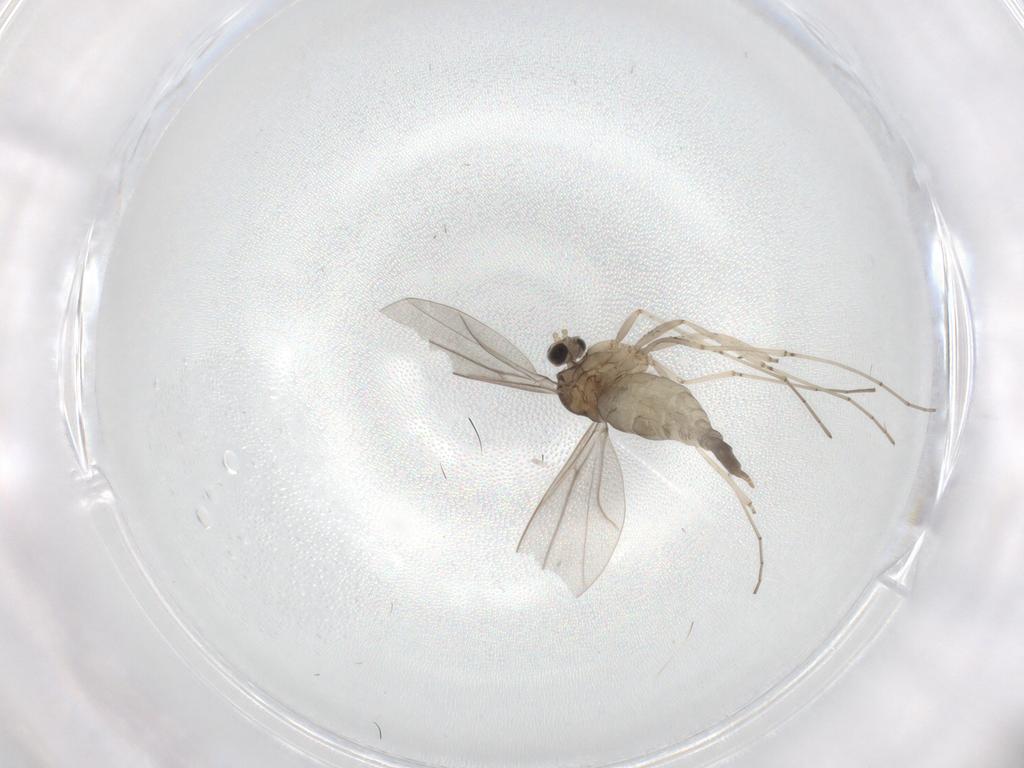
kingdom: Animalia
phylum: Arthropoda
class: Insecta
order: Diptera
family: Cecidomyiidae
